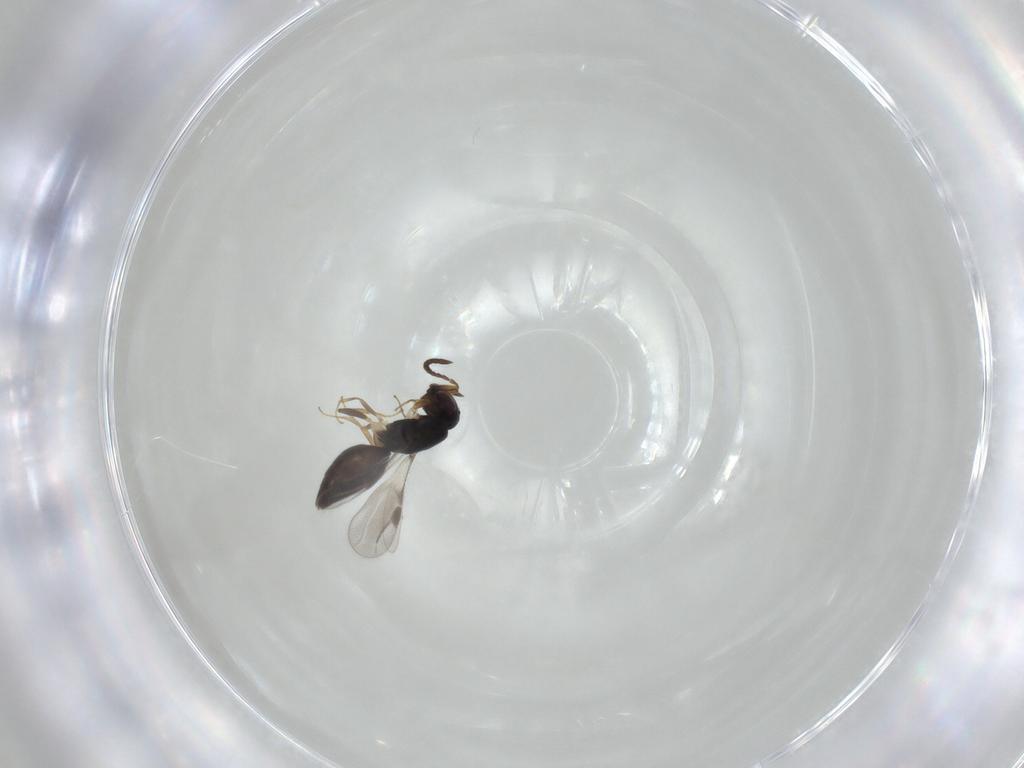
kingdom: Animalia
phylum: Arthropoda
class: Insecta
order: Hymenoptera
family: Megaspilidae
